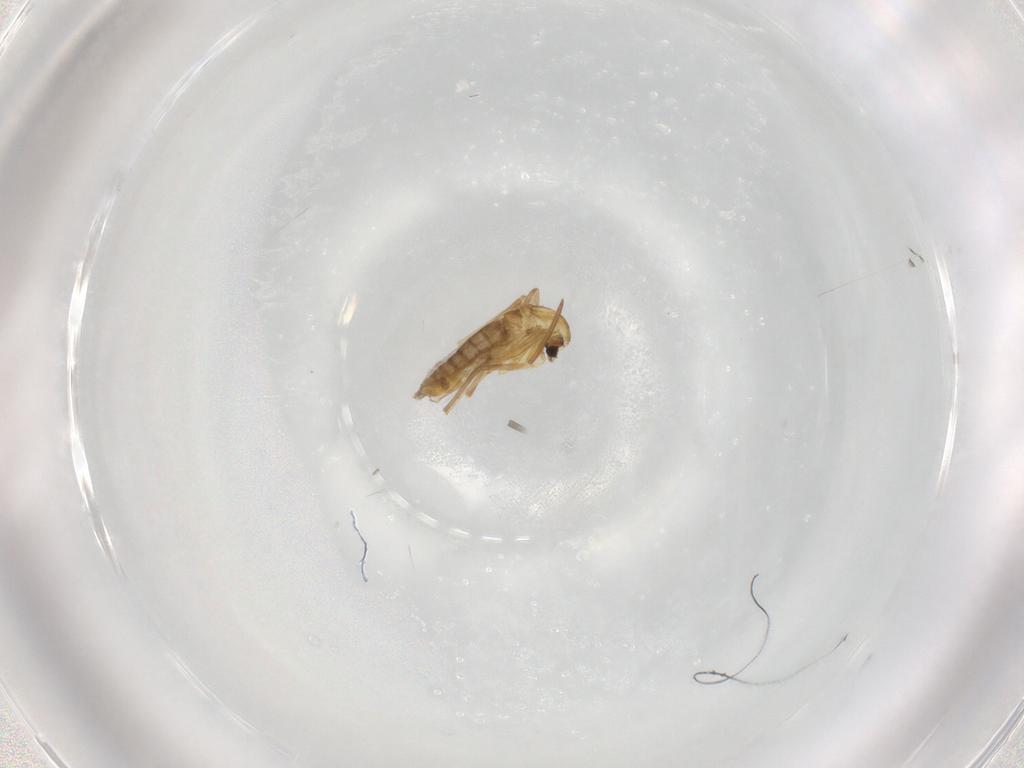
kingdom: Animalia
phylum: Arthropoda
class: Insecta
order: Diptera
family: Chironomidae
